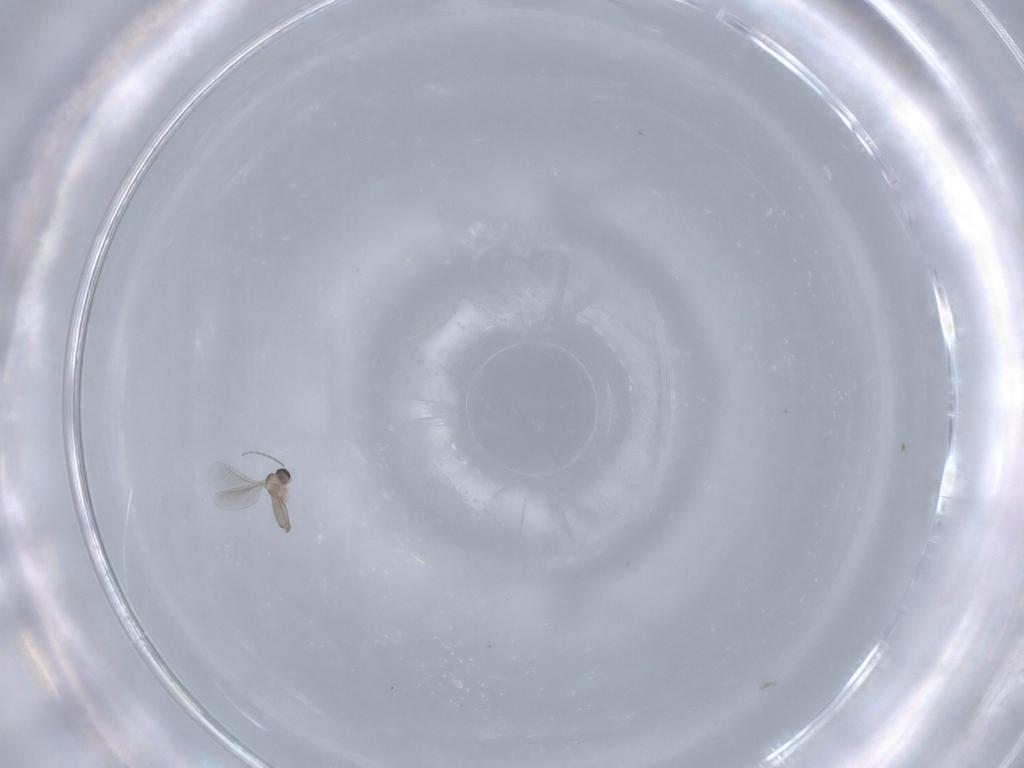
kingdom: Animalia
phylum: Arthropoda
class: Insecta
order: Diptera
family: Cecidomyiidae
